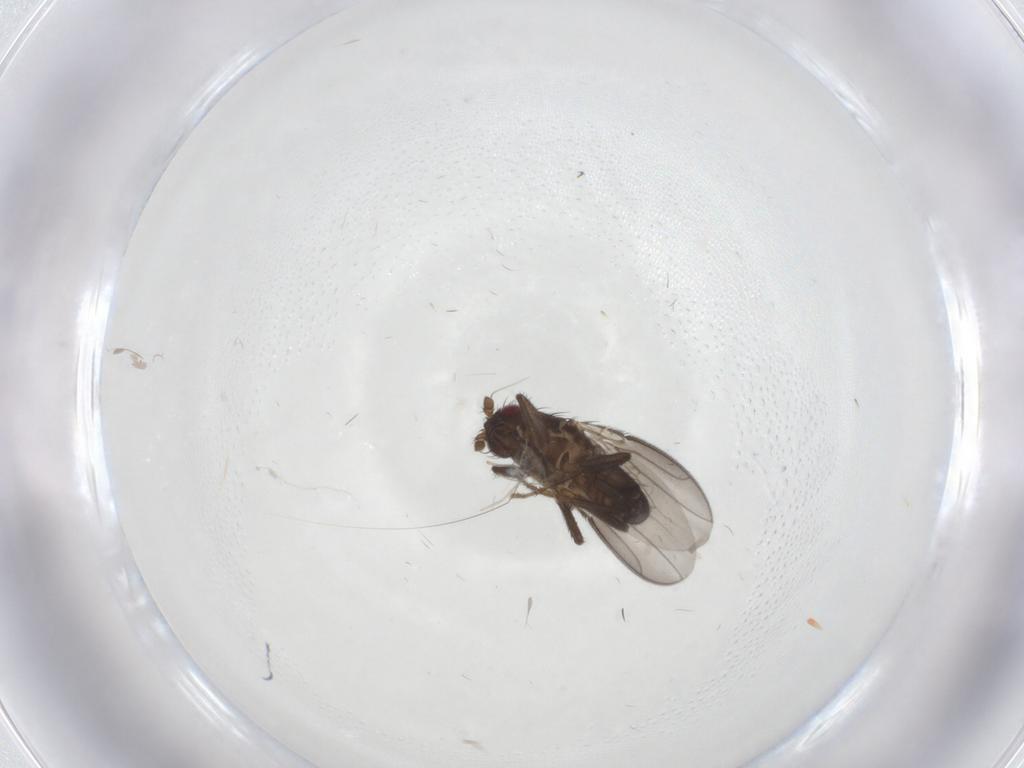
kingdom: Animalia
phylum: Arthropoda
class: Insecta
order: Diptera
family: Sphaeroceridae
